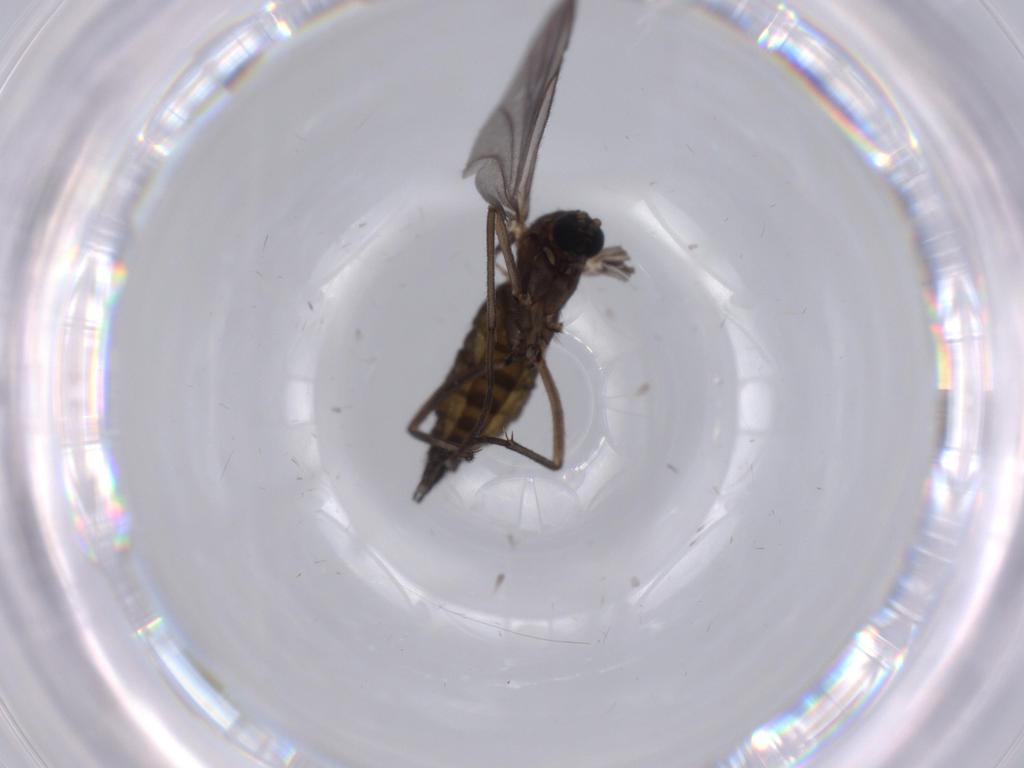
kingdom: Animalia
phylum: Arthropoda
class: Insecta
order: Diptera
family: Sciaridae
